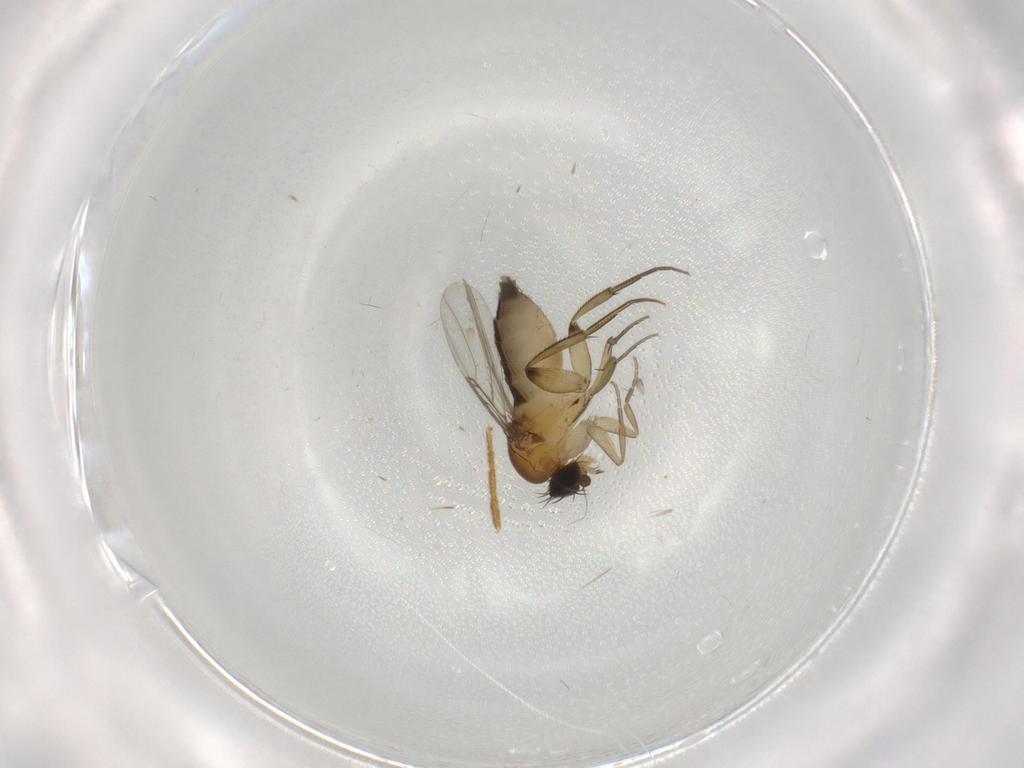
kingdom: Animalia
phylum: Arthropoda
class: Insecta
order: Diptera
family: Phoridae
